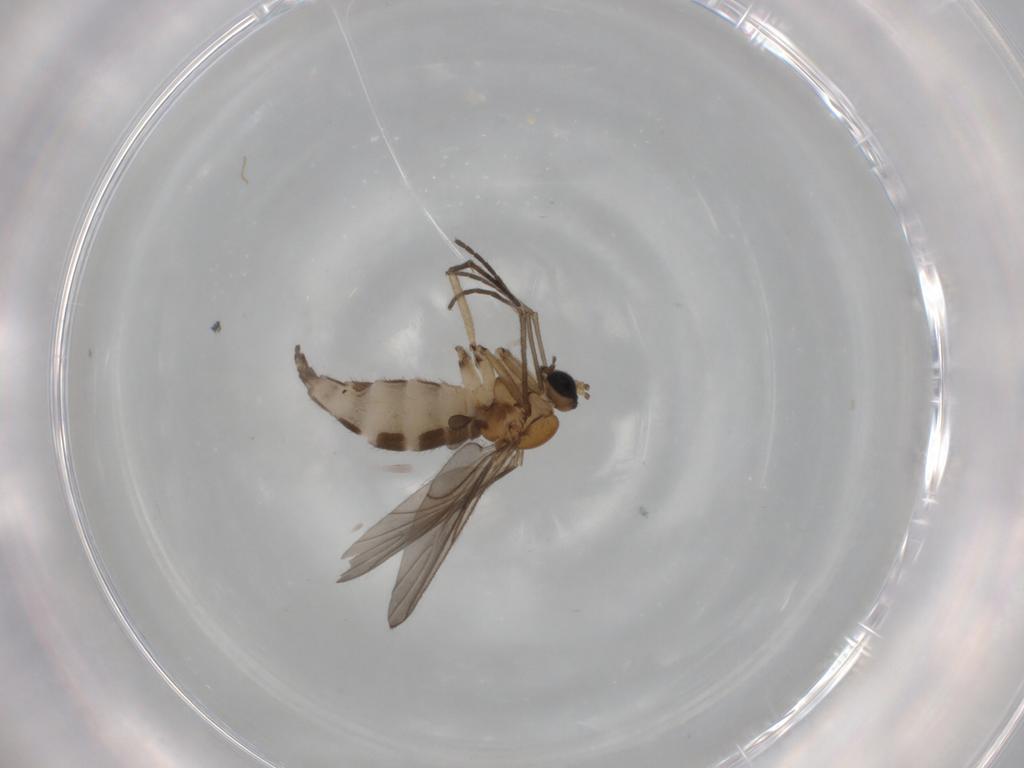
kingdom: Animalia
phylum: Arthropoda
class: Insecta
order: Diptera
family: Sciaridae
